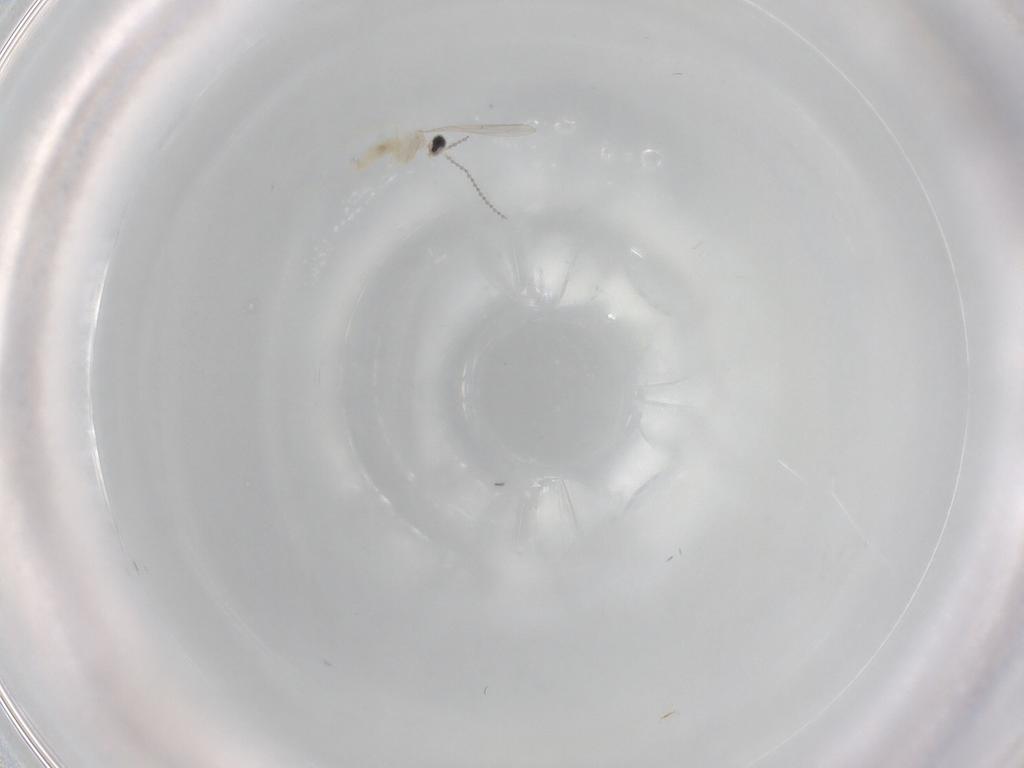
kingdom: Animalia
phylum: Arthropoda
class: Insecta
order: Diptera
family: Cecidomyiidae
